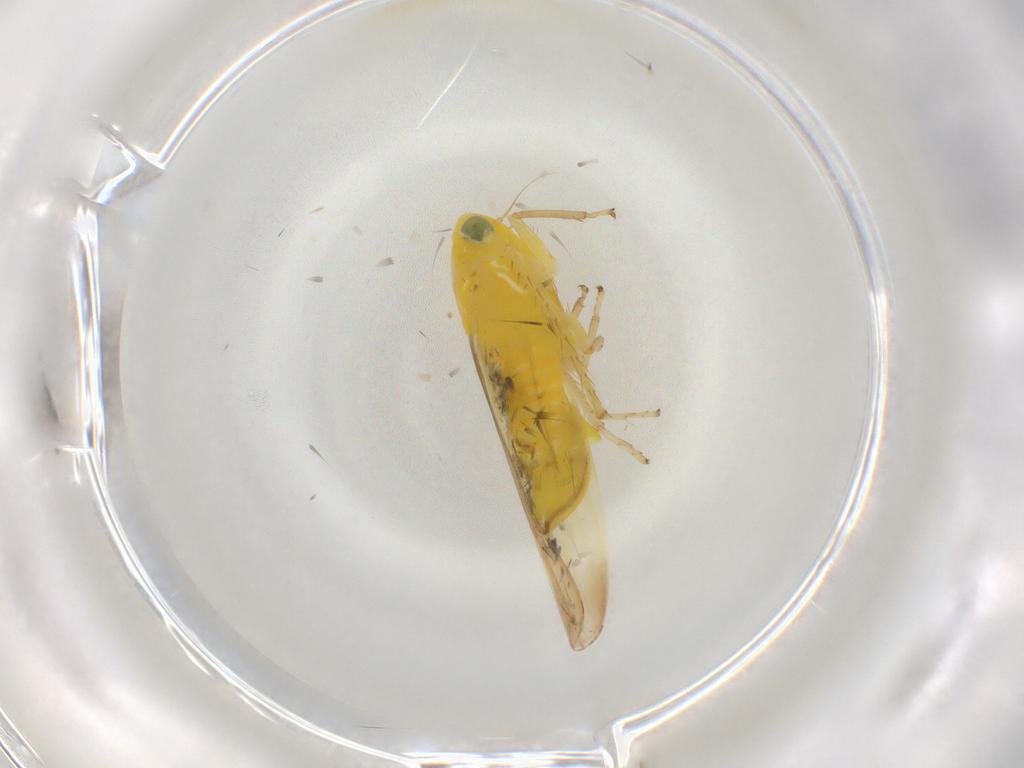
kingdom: Animalia
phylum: Arthropoda
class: Insecta
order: Hemiptera
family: Cicadellidae
